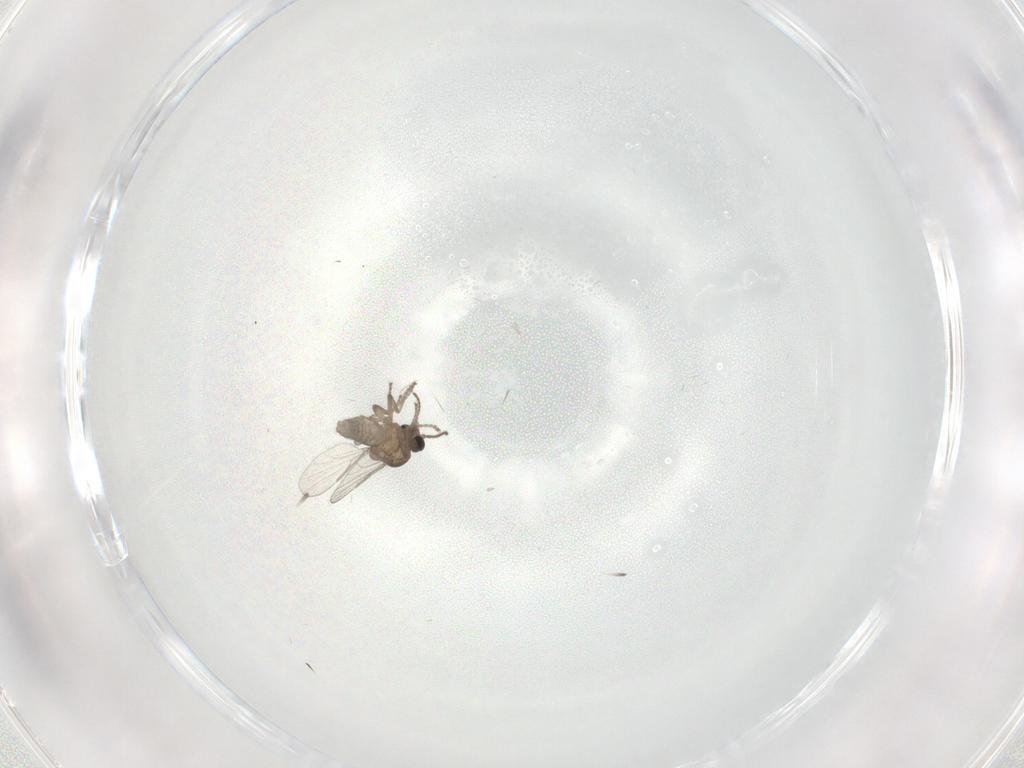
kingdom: Animalia
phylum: Arthropoda
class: Insecta
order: Diptera
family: Ceratopogonidae
